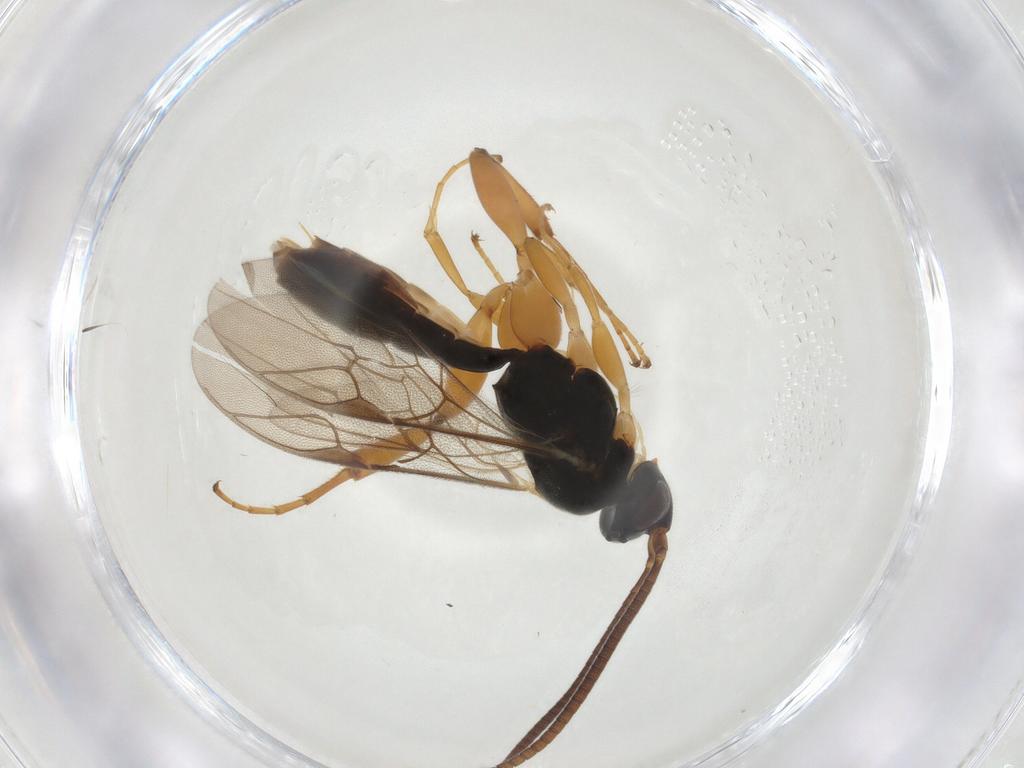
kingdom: Animalia
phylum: Arthropoda
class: Insecta
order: Hymenoptera
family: Ichneumonidae
